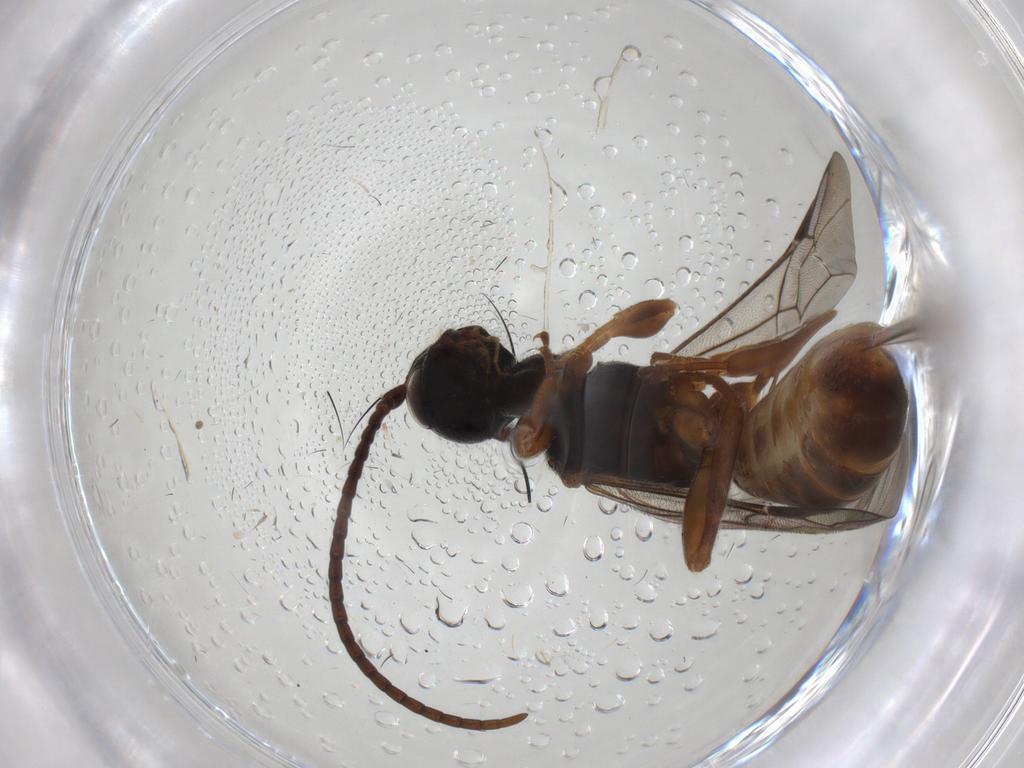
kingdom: Animalia
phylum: Arthropoda
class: Insecta
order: Hymenoptera
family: Ichneumonidae
